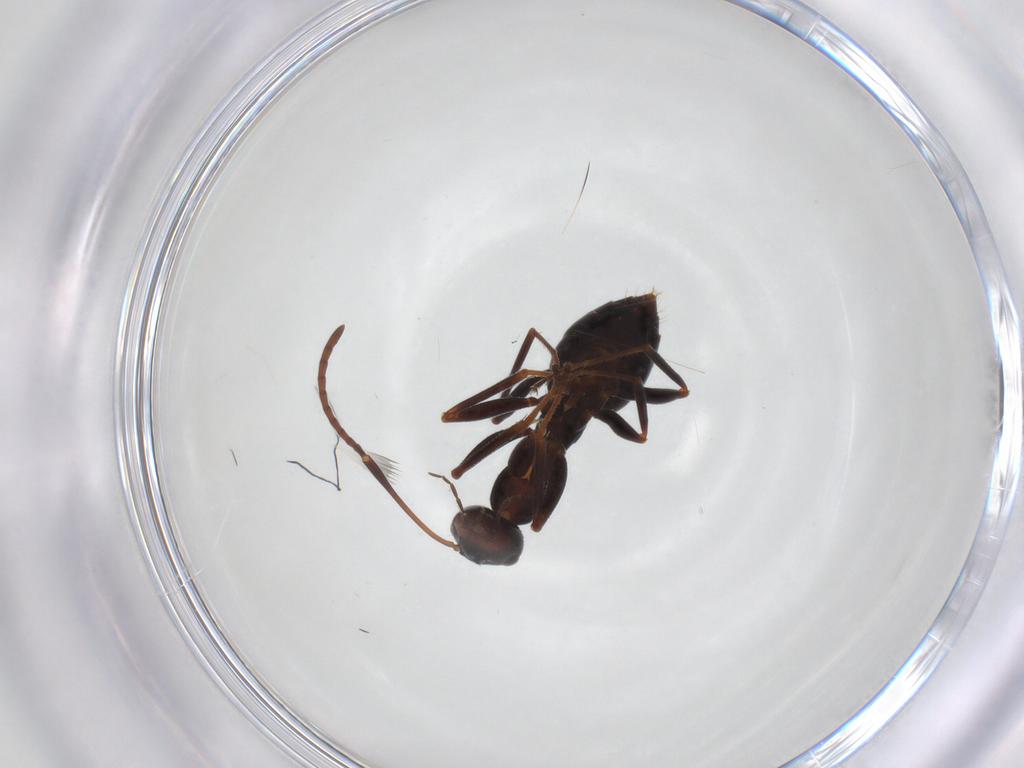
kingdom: Animalia
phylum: Arthropoda
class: Insecta
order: Hymenoptera
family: Formicidae
